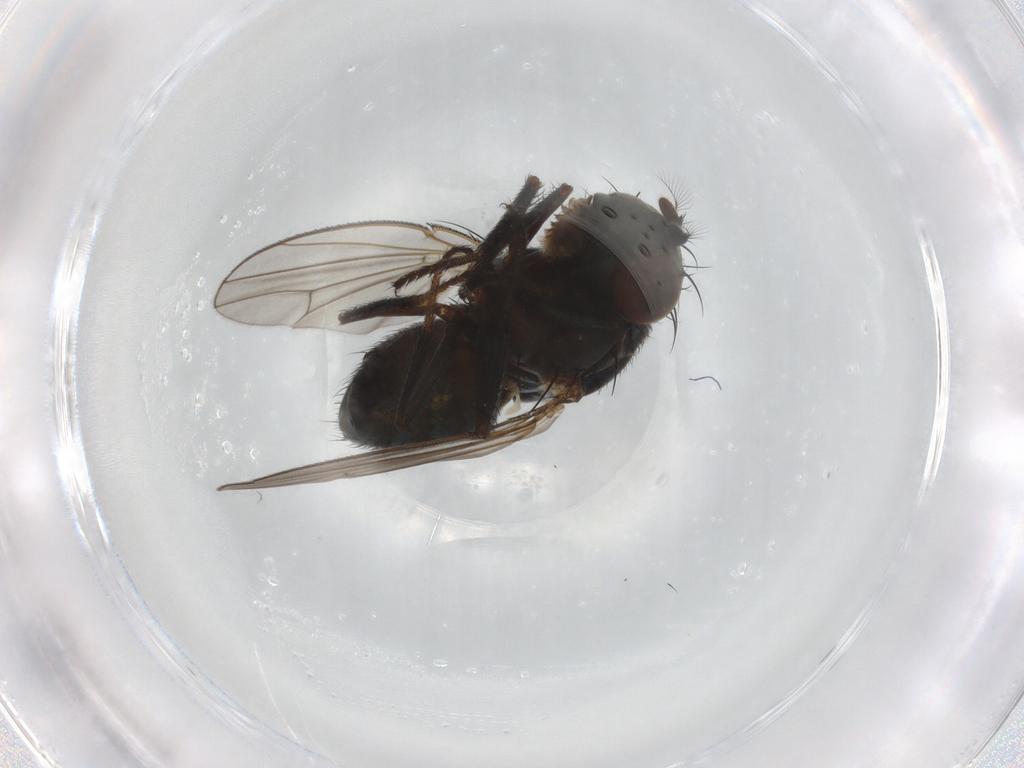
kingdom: Animalia
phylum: Arthropoda
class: Insecta
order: Diptera
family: Ephydridae
